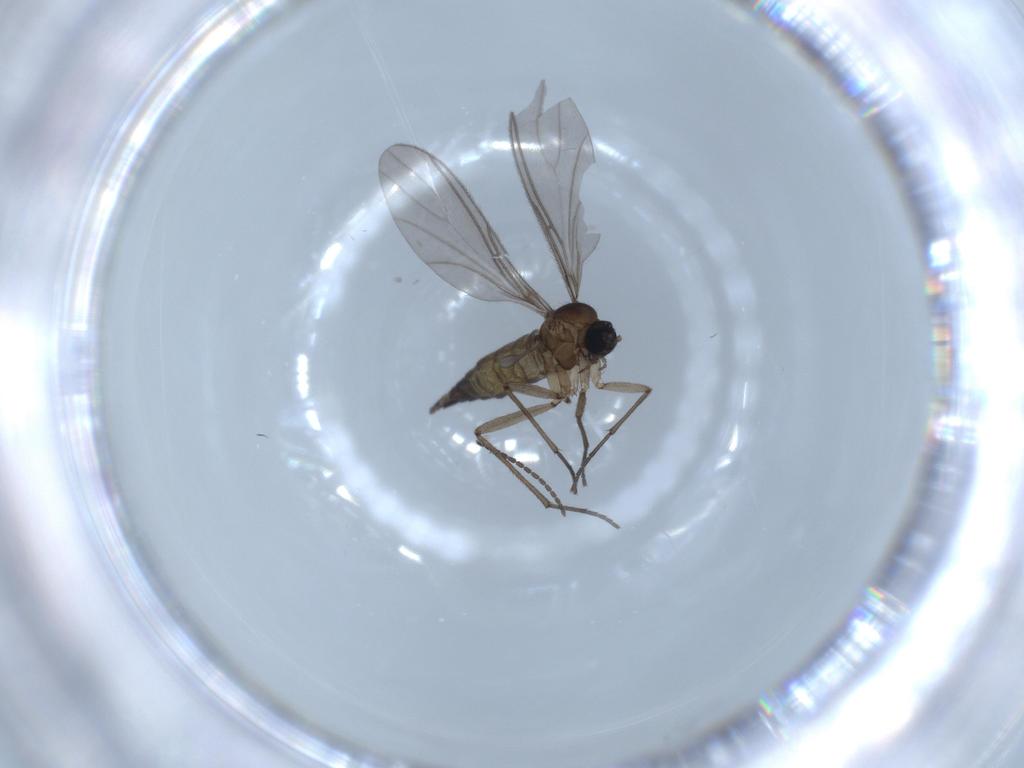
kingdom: Animalia
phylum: Arthropoda
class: Insecta
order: Diptera
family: Sciaridae
